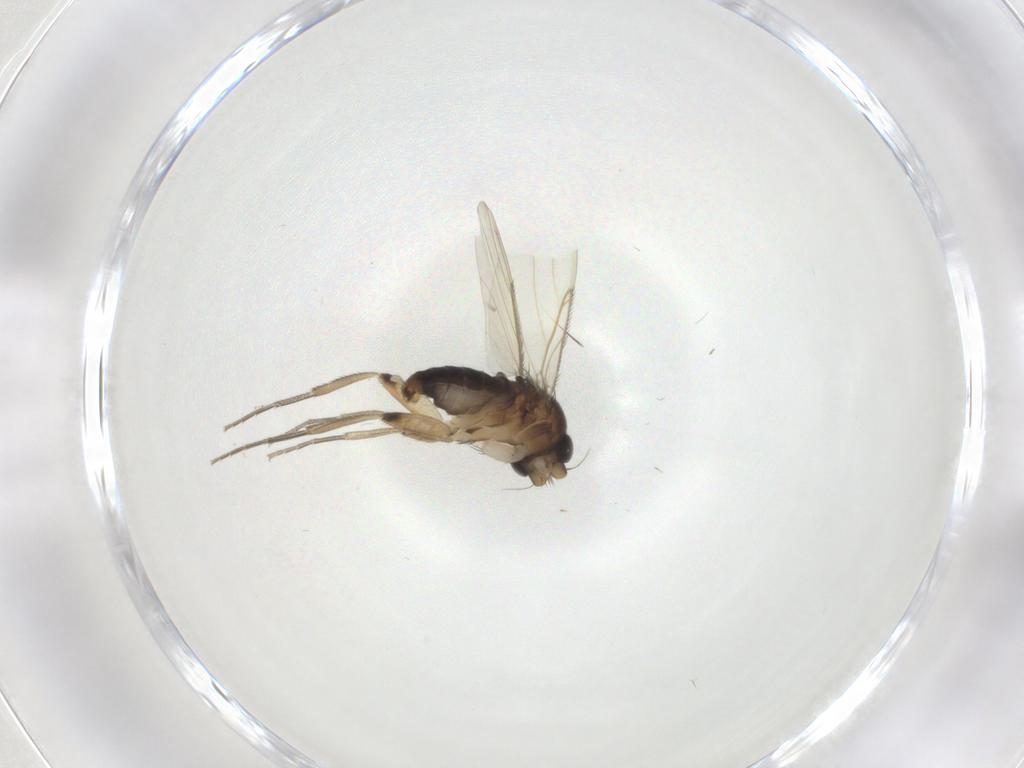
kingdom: Animalia
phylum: Arthropoda
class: Insecta
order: Diptera
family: Phoridae
